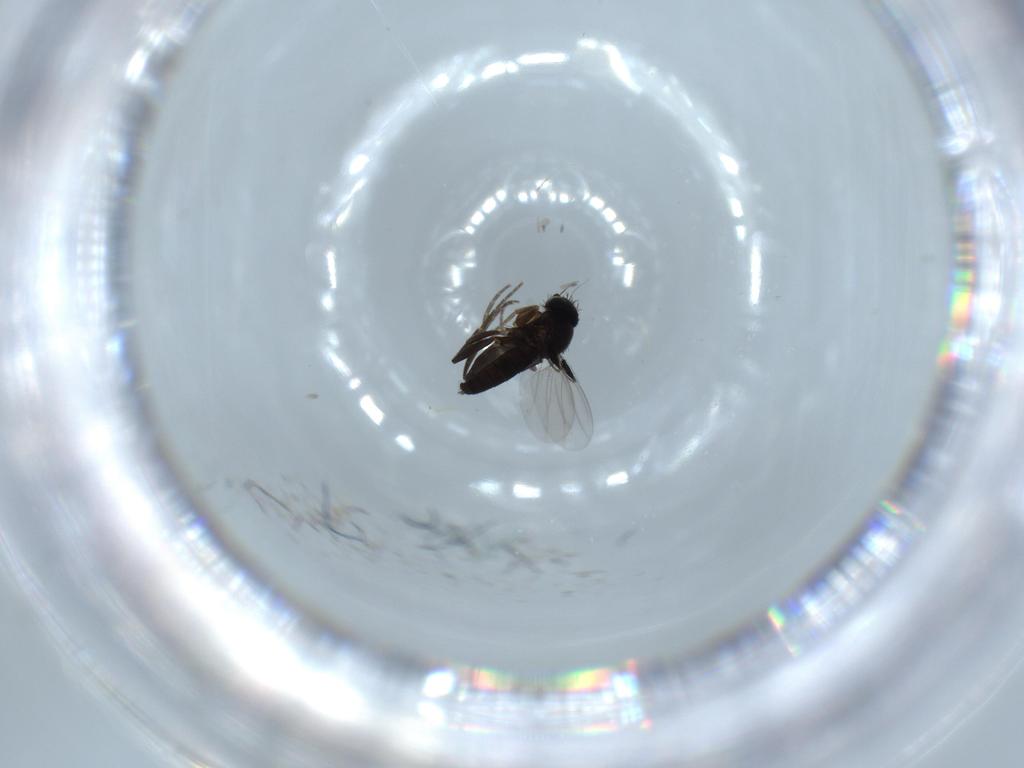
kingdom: Animalia
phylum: Arthropoda
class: Insecta
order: Diptera
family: Phoridae
